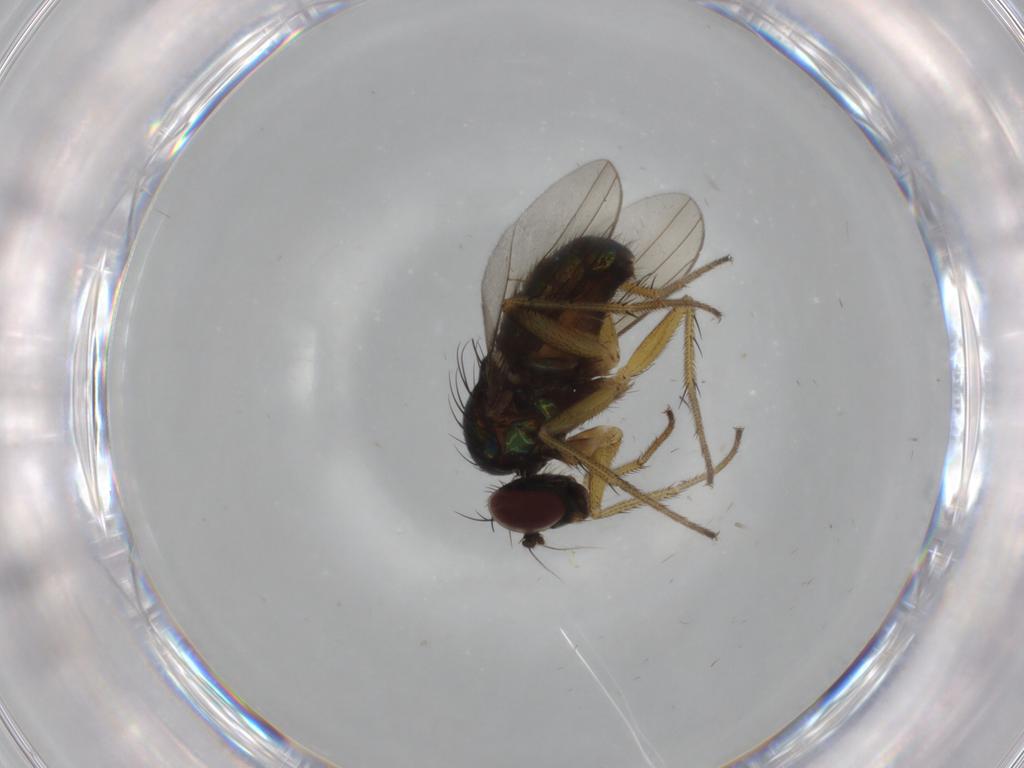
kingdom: Animalia
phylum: Arthropoda
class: Insecta
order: Diptera
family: Dolichopodidae
